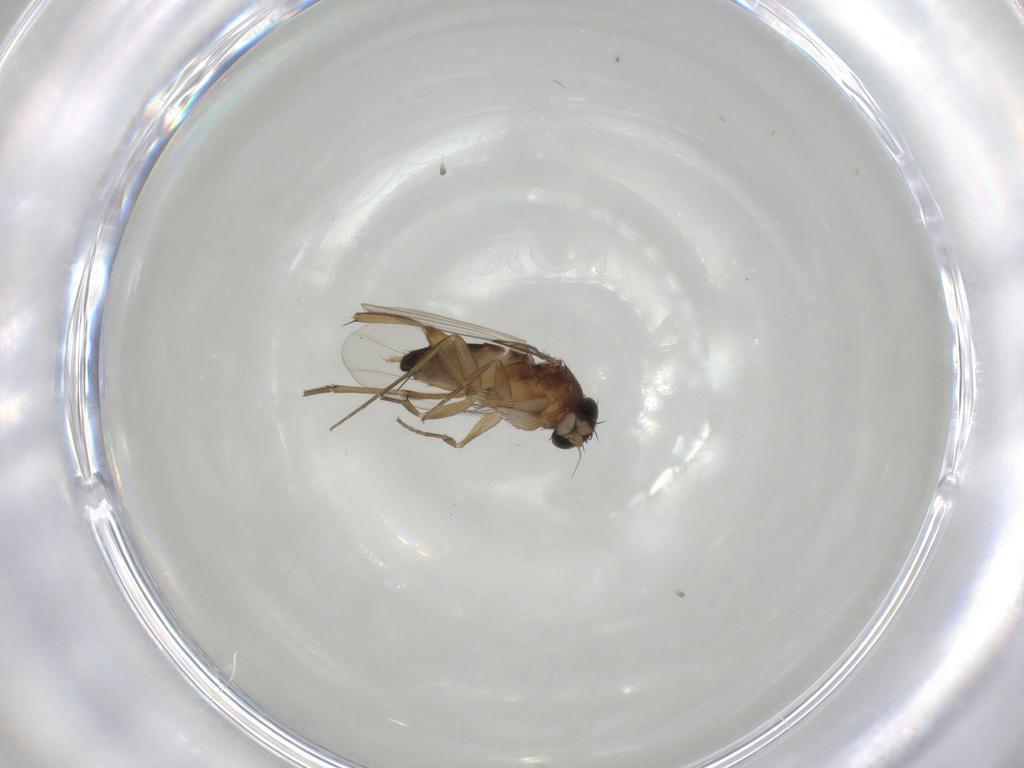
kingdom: Animalia
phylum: Arthropoda
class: Insecta
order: Diptera
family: Phoridae
